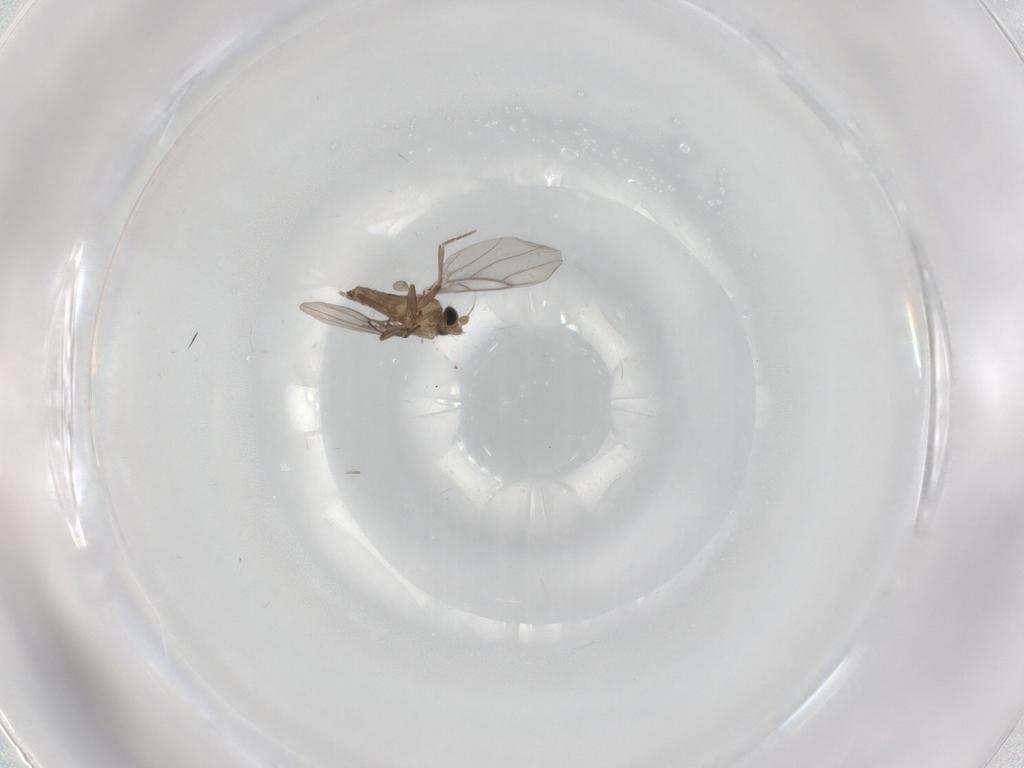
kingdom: Animalia
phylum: Arthropoda
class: Insecta
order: Diptera
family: Chironomidae
